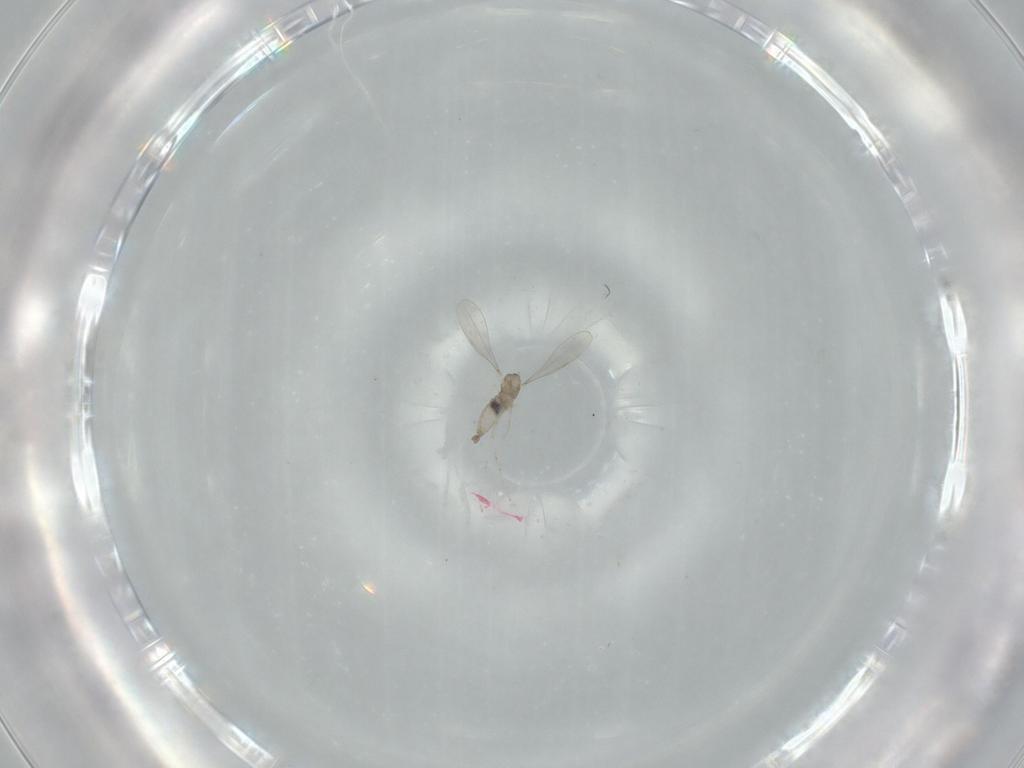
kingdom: Animalia
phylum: Arthropoda
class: Insecta
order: Diptera
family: Cecidomyiidae
